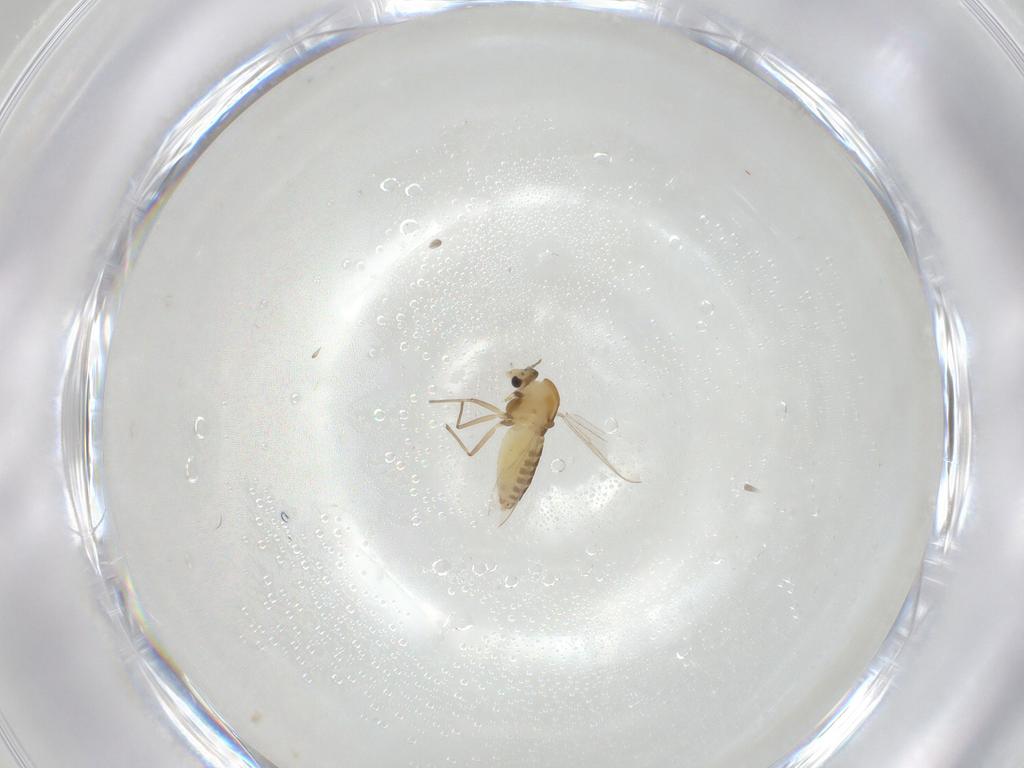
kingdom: Animalia
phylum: Arthropoda
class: Insecta
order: Diptera
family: Chironomidae
